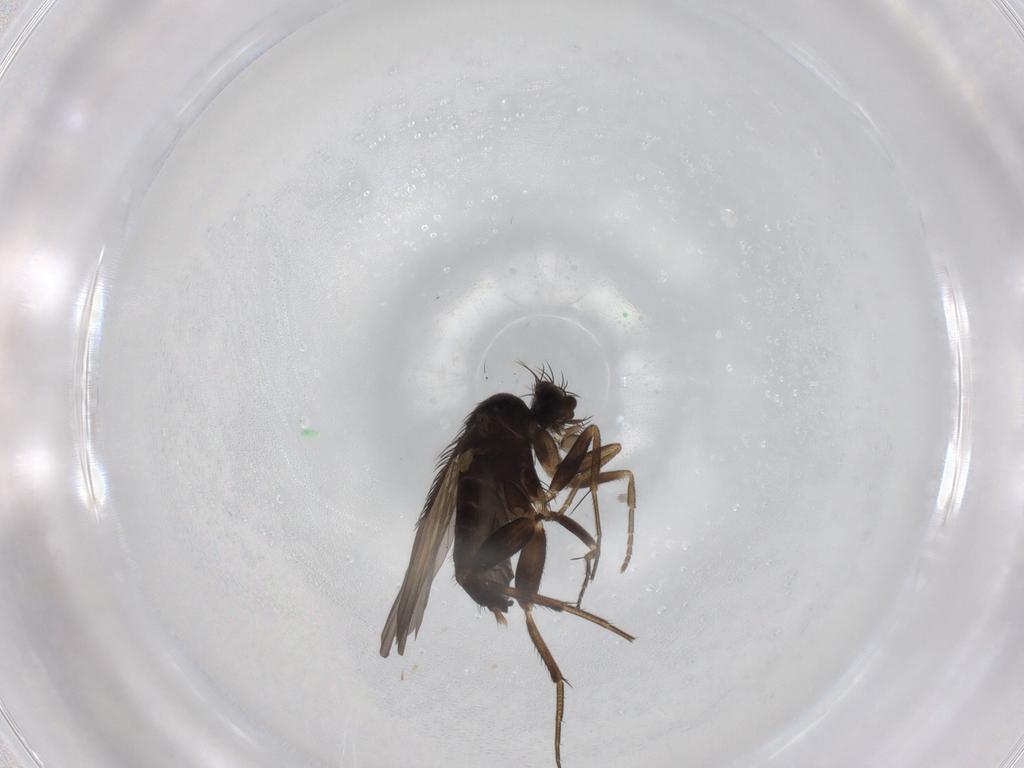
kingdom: Animalia
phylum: Arthropoda
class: Insecta
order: Diptera
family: Phoridae
